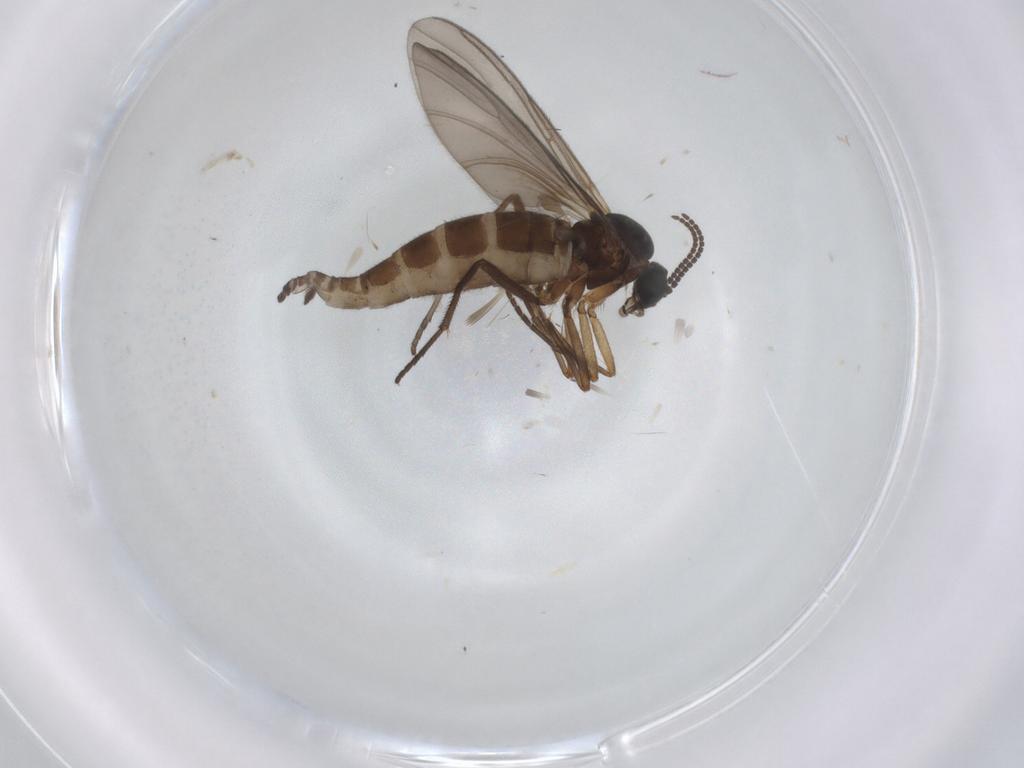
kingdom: Animalia
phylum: Arthropoda
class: Insecta
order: Diptera
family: Sciaridae
